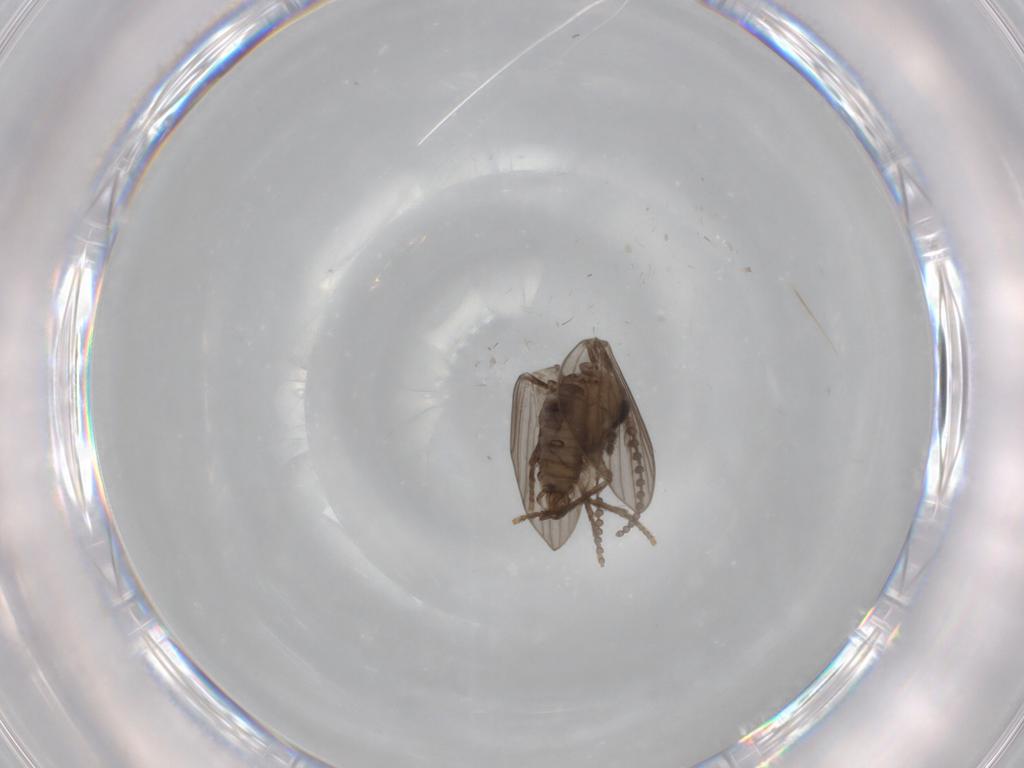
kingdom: Animalia
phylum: Arthropoda
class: Insecta
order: Diptera
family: Psychodidae
